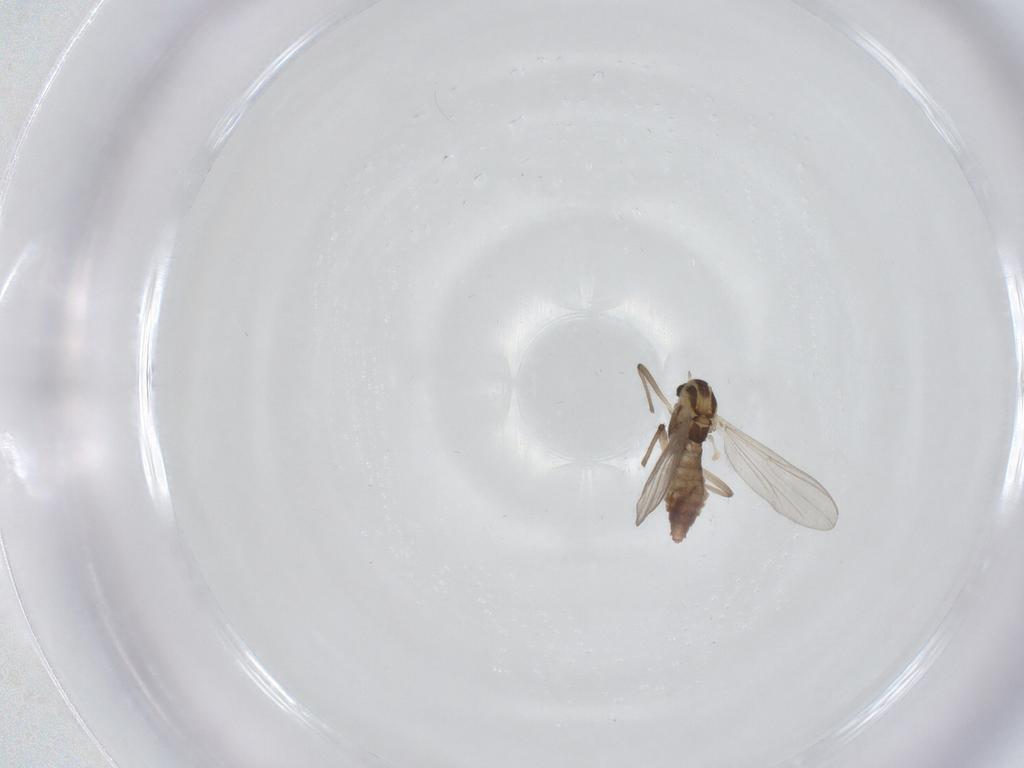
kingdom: Animalia
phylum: Arthropoda
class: Insecta
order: Diptera
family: Chironomidae
